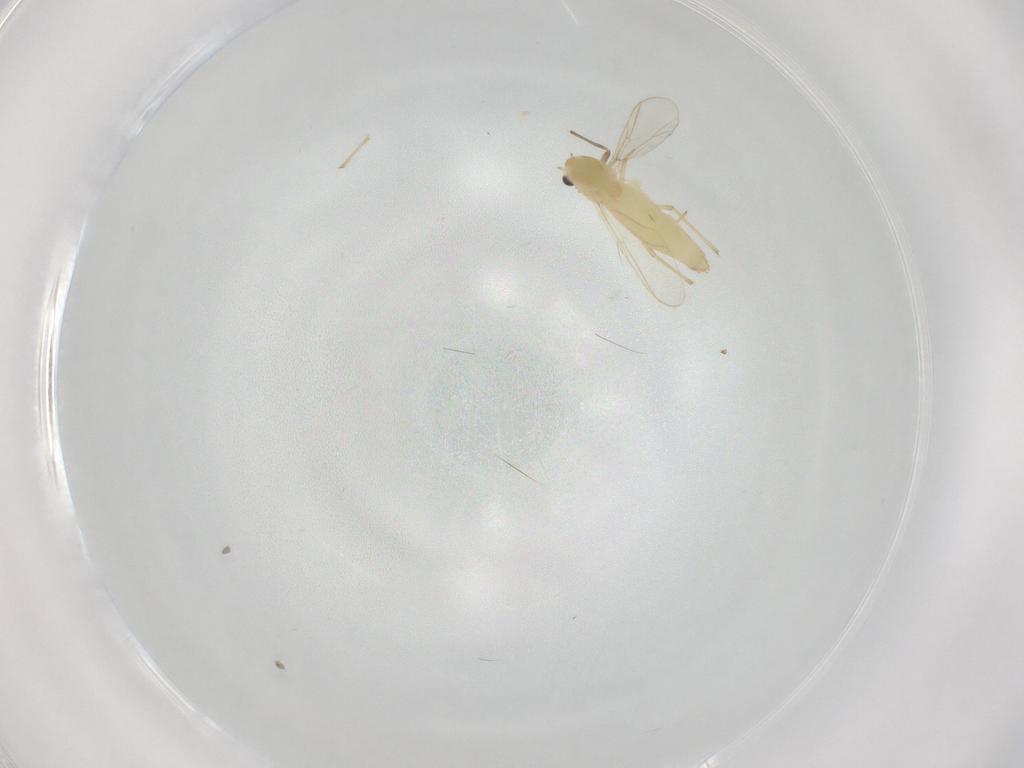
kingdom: Animalia
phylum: Arthropoda
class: Insecta
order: Diptera
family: Chironomidae
